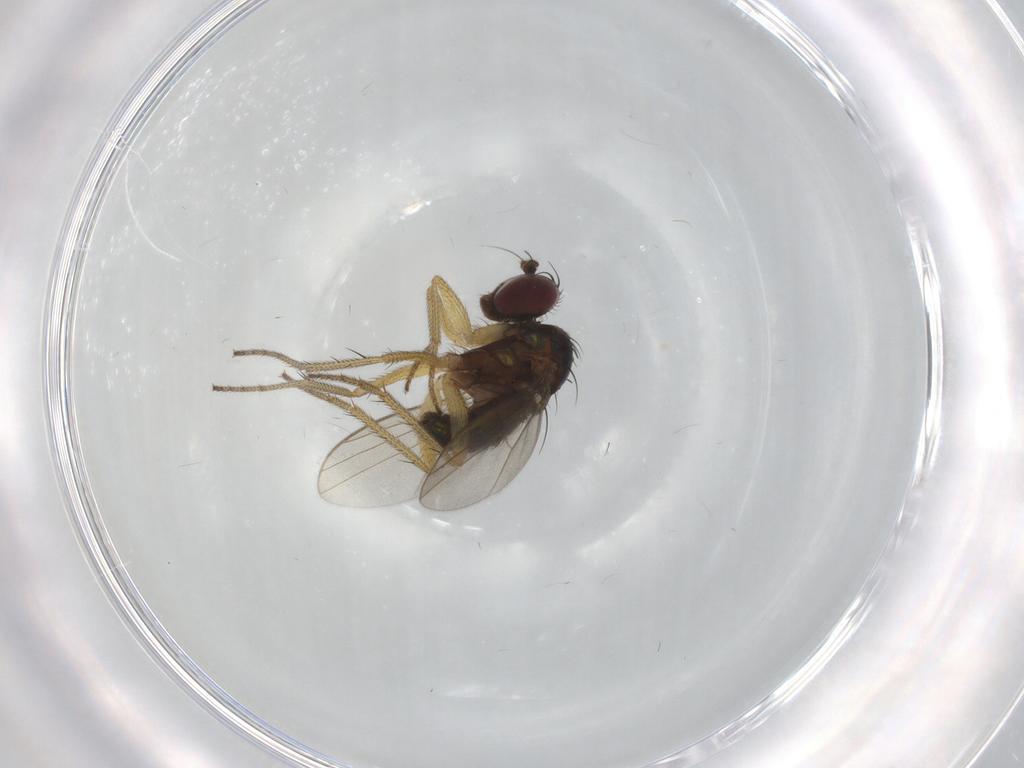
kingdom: Animalia
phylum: Arthropoda
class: Insecta
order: Diptera
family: Dolichopodidae
